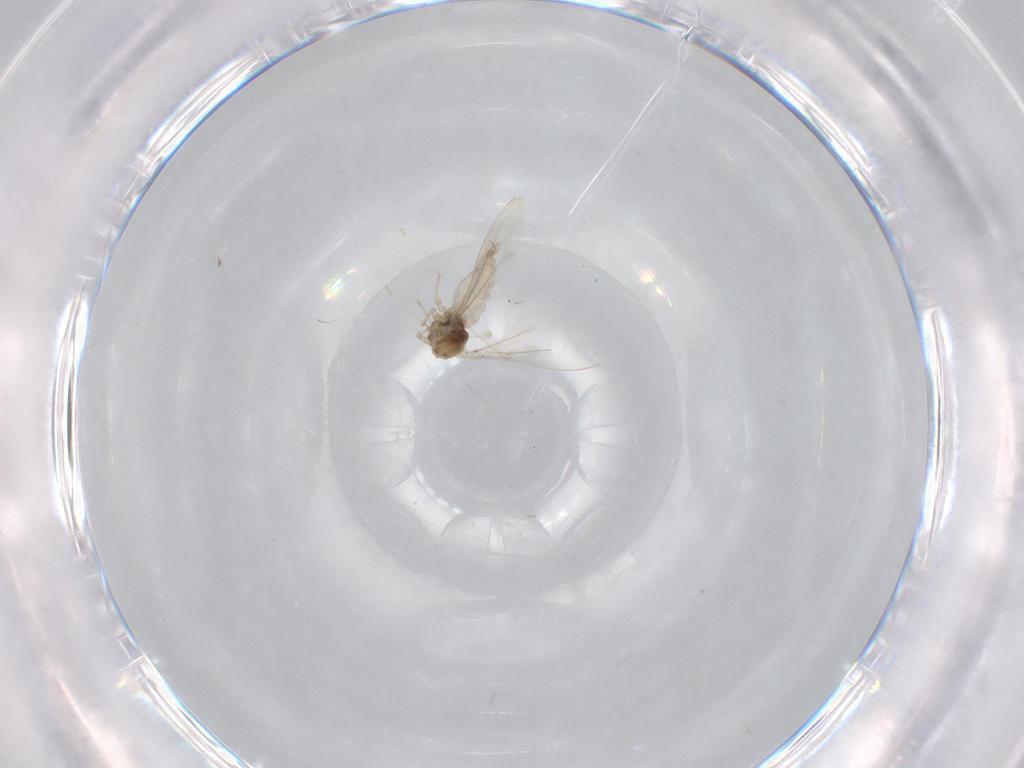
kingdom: Animalia
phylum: Arthropoda
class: Insecta
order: Diptera
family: Cecidomyiidae
